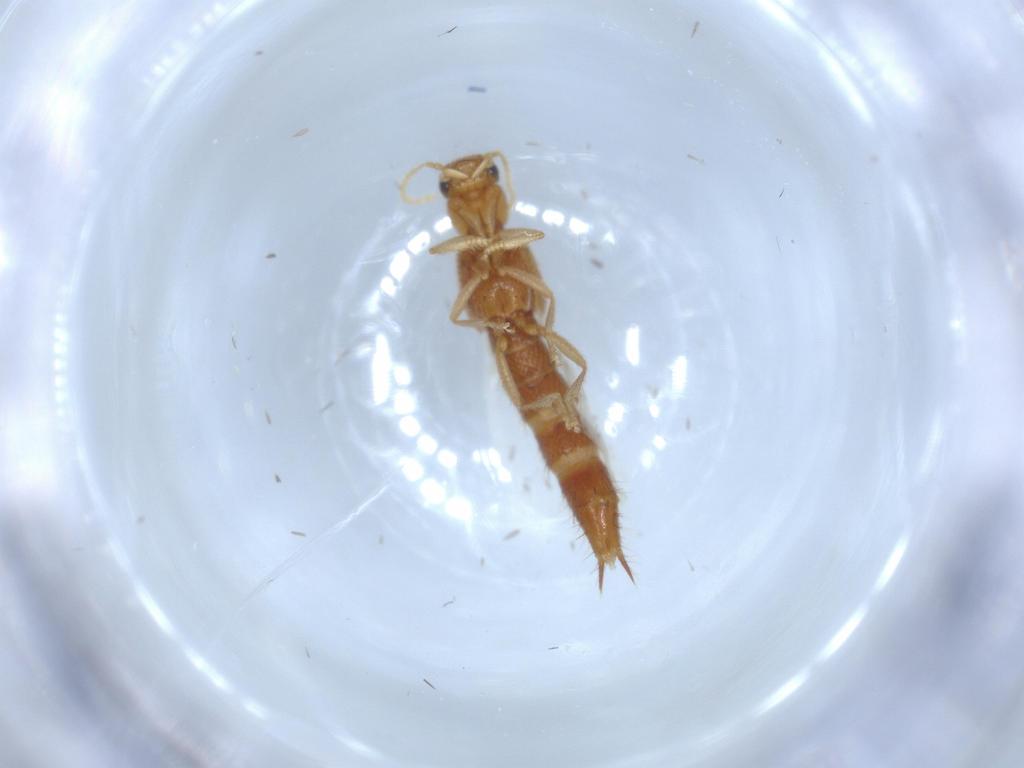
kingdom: Animalia
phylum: Arthropoda
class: Insecta
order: Coleoptera
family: Staphylinidae
